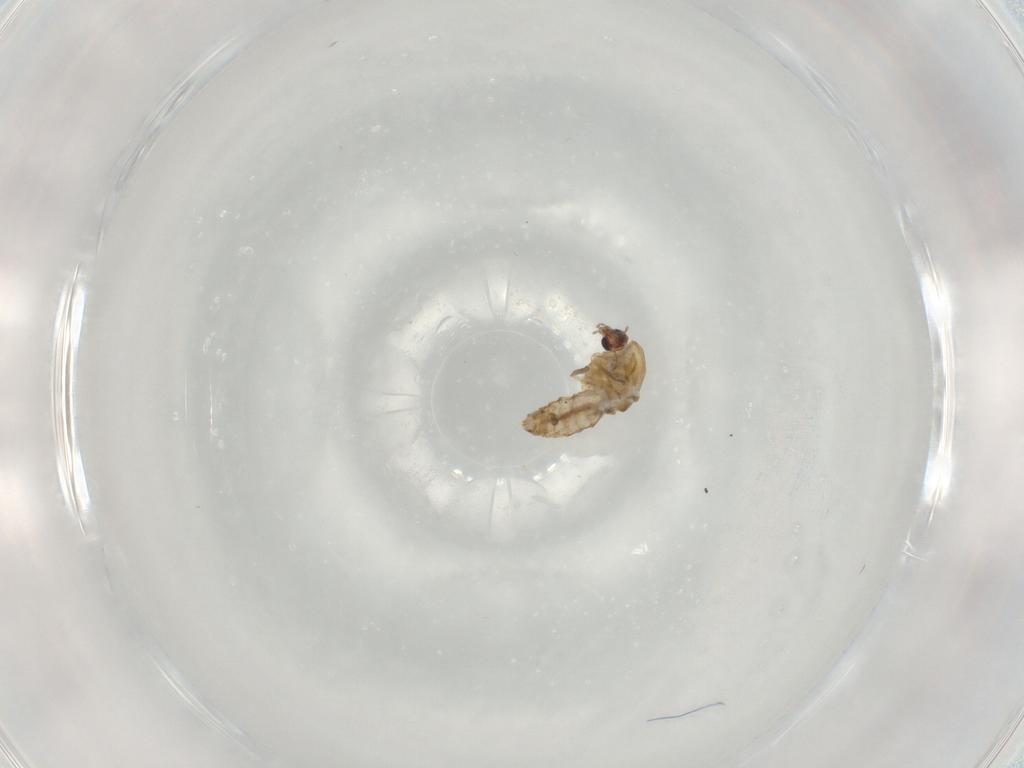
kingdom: Animalia
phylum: Arthropoda
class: Insecta
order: Diptera
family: Chironomidae
